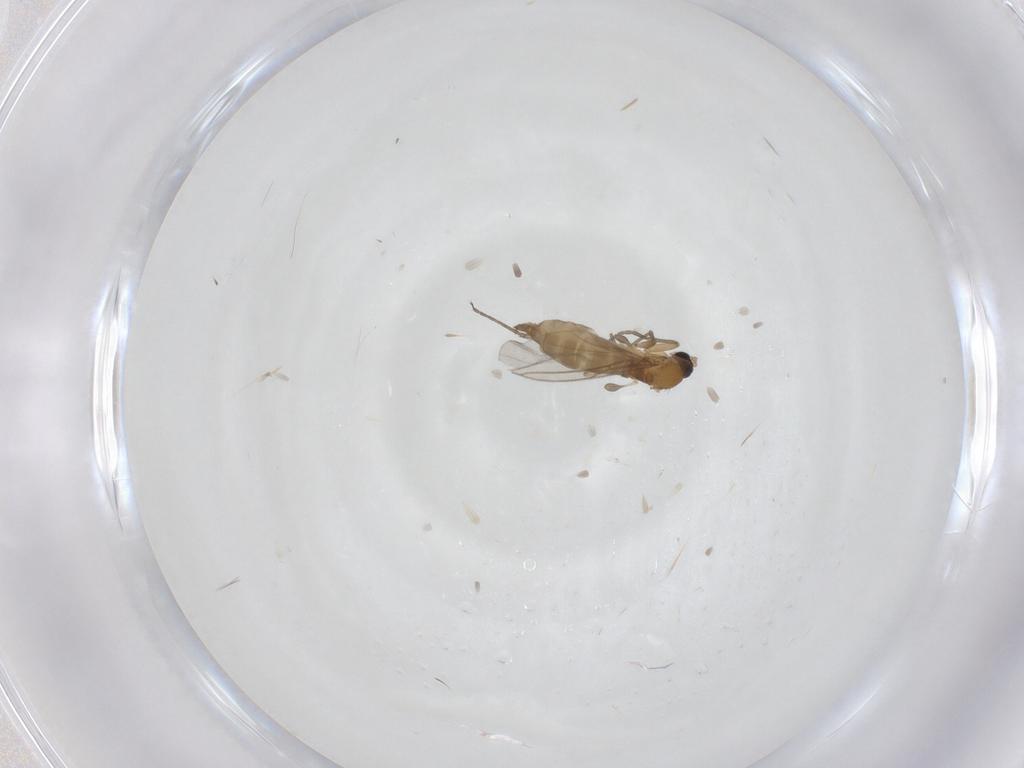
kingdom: Animalia
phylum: Arthropoda
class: Insecta
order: Diptera
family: Sciaridae
